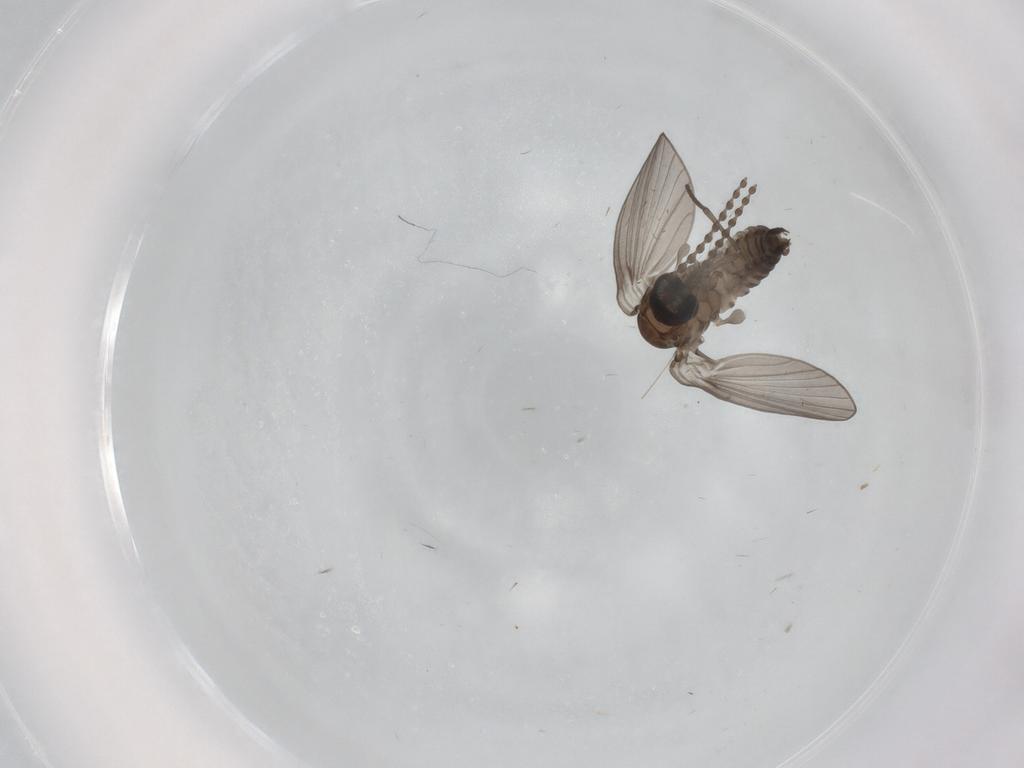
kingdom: Animalia
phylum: Arthropoda
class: Insecta
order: Diptera
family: Psychodidae
